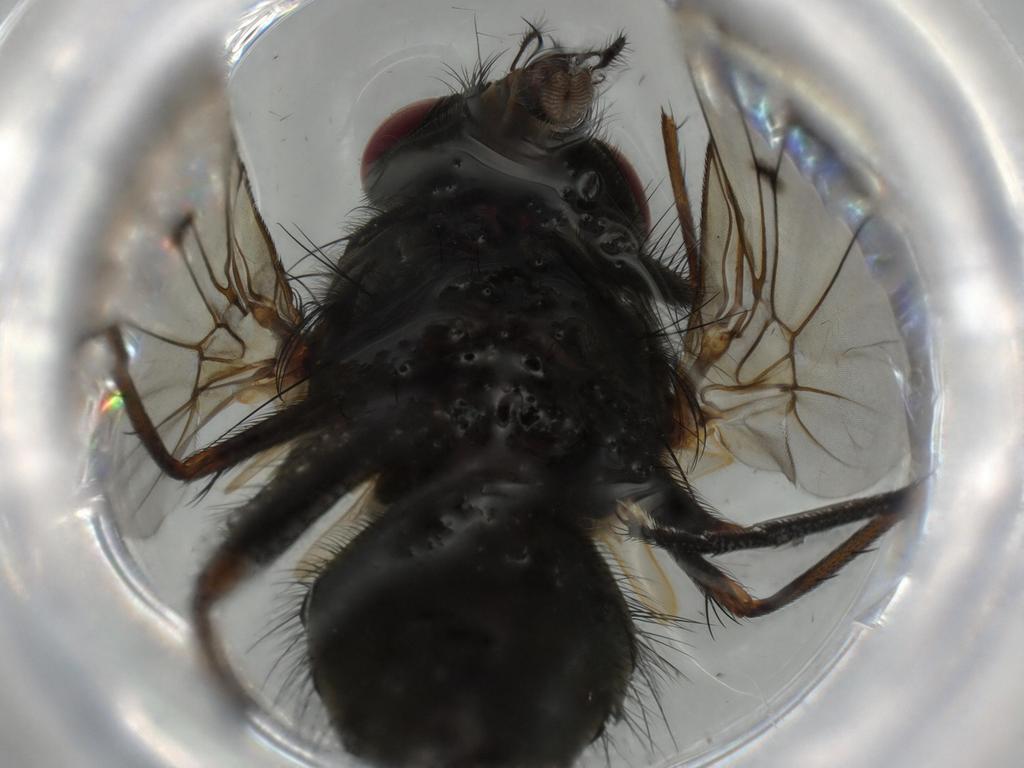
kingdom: Animalia
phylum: Arthropoda
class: Insecta
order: Diptera
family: Muscidae
